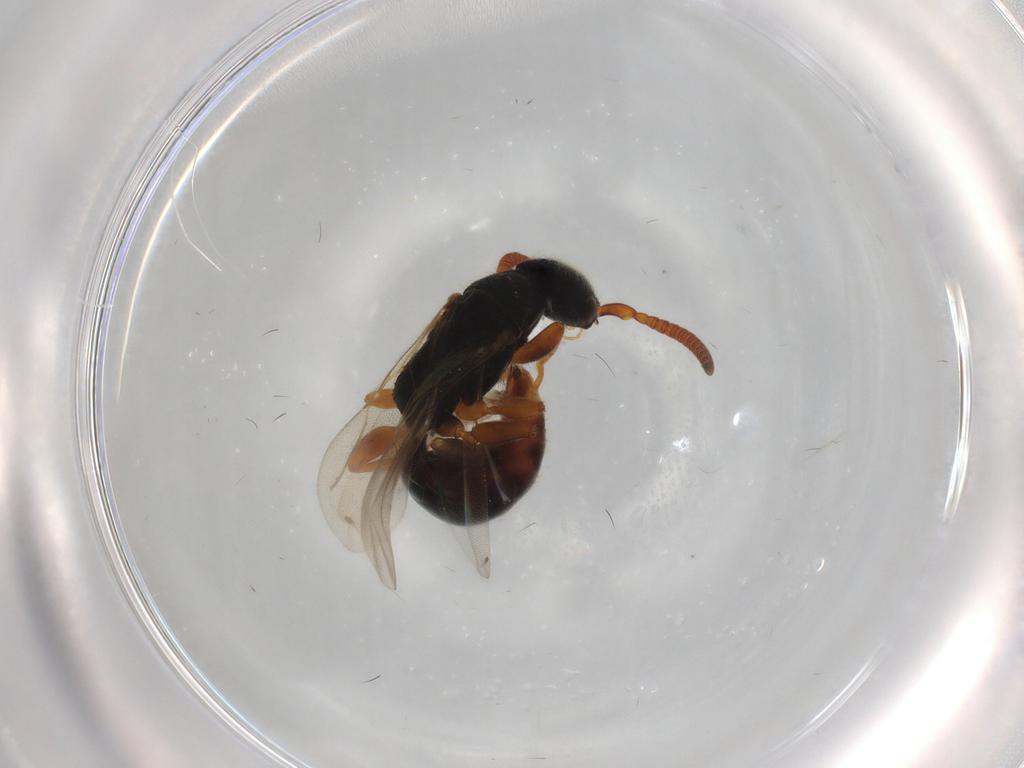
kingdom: Animalia
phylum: Arthropoda
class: Insecta
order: Hymenoptera
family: Bethylidae
